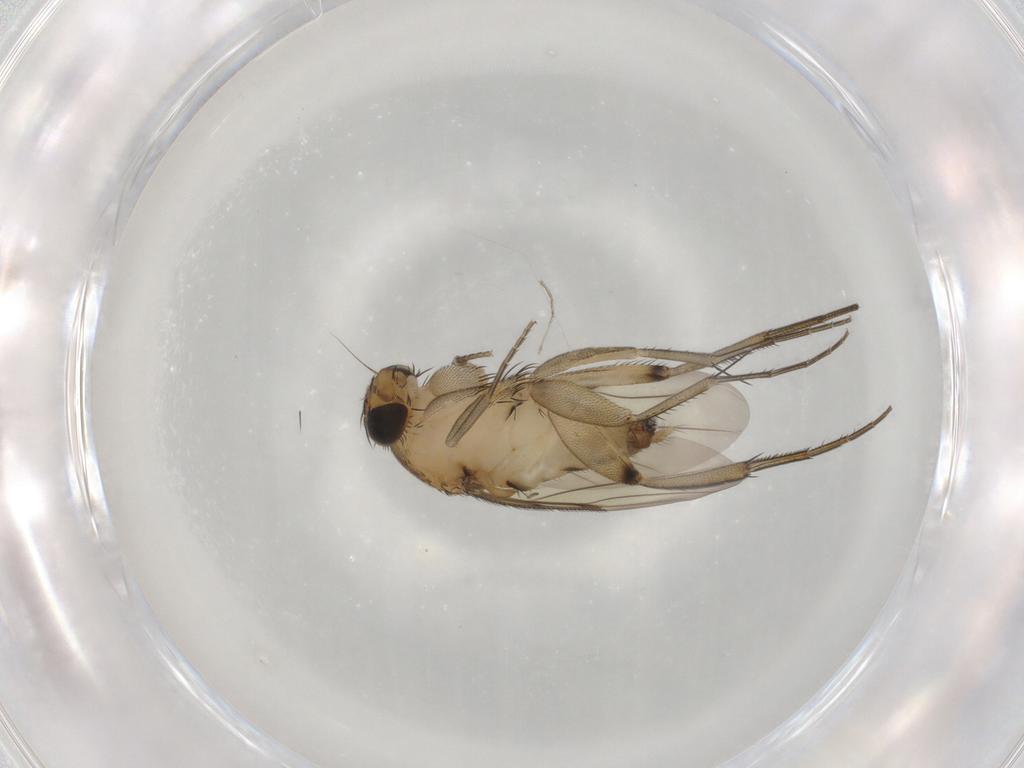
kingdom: Animalia
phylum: Arthropoda
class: Insecta
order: Diptera
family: Phoridae
